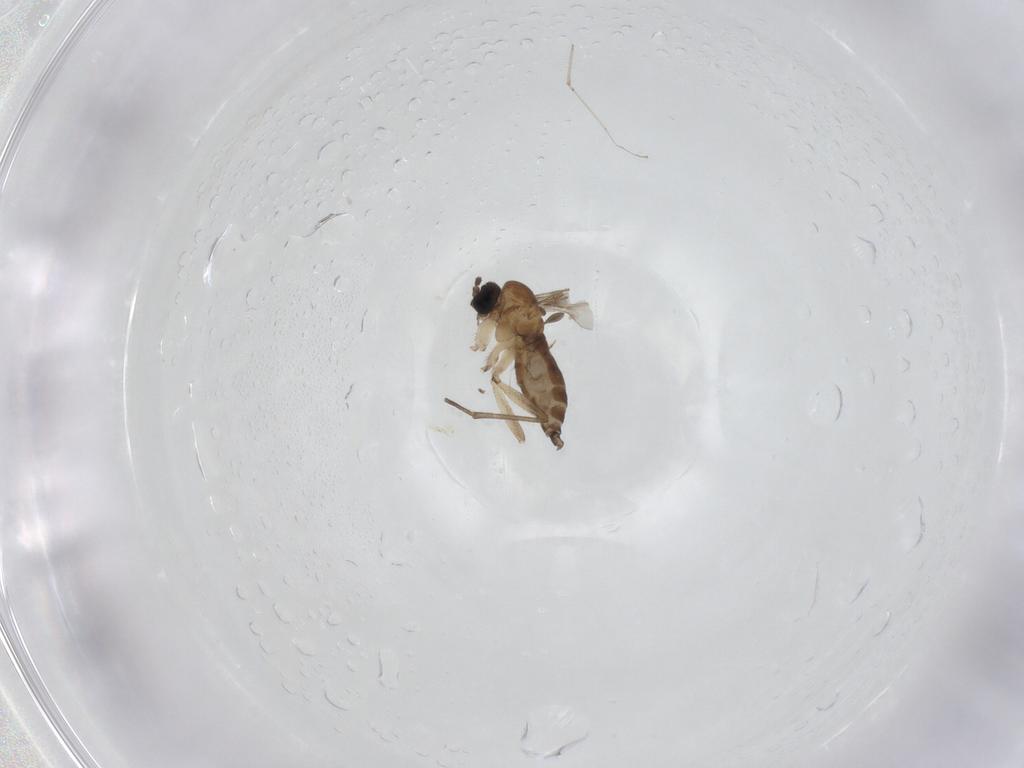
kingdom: Animalia
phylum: Arthropoda
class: Insecta
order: Diptera
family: Sciaridae
